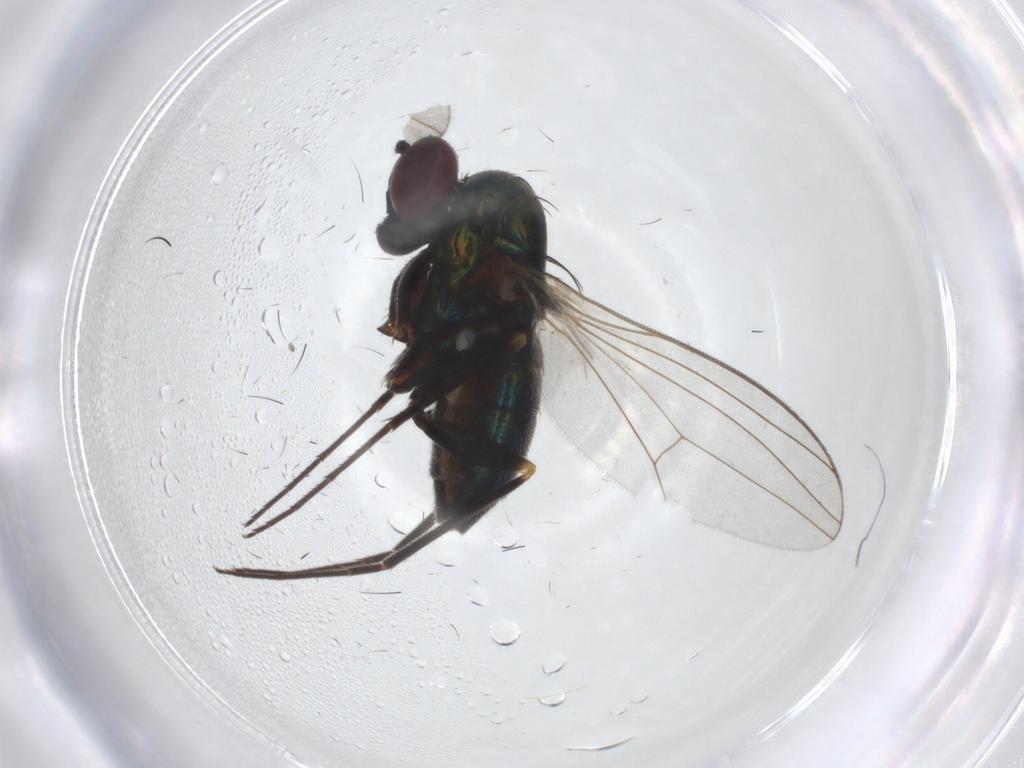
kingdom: Animalia
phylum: Arthropoda
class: Insecta
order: Diptera
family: Dolichopodidae
